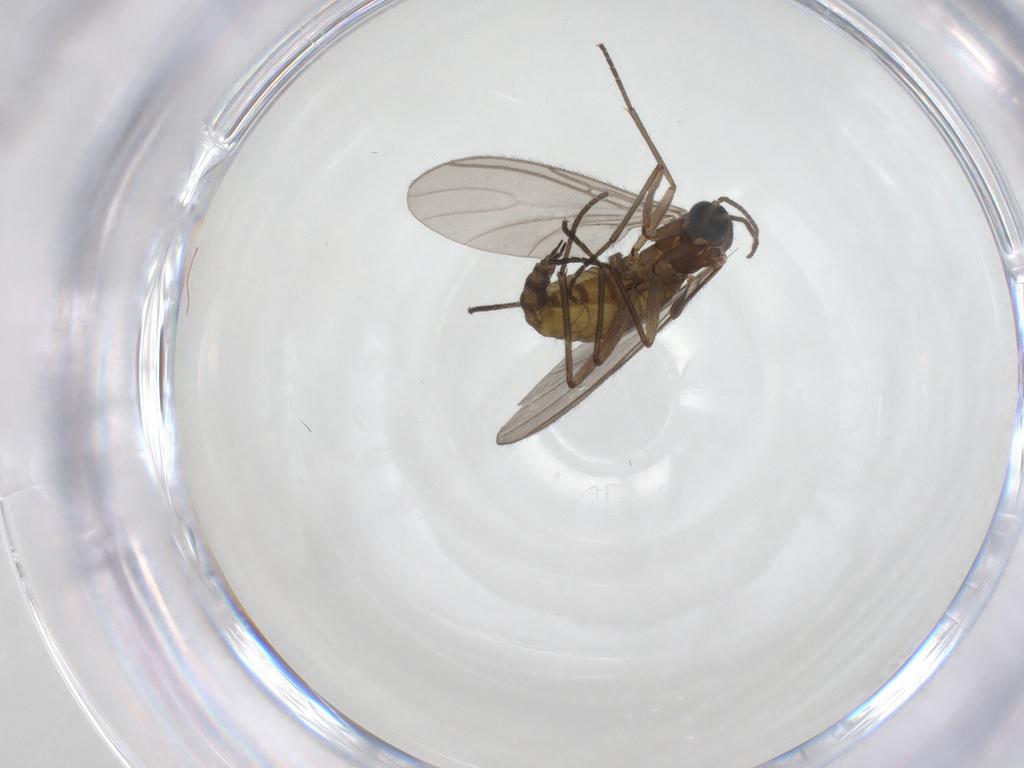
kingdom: Animalia
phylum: Arthropoda
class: Insecta
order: Diptera
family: Sciaridae
